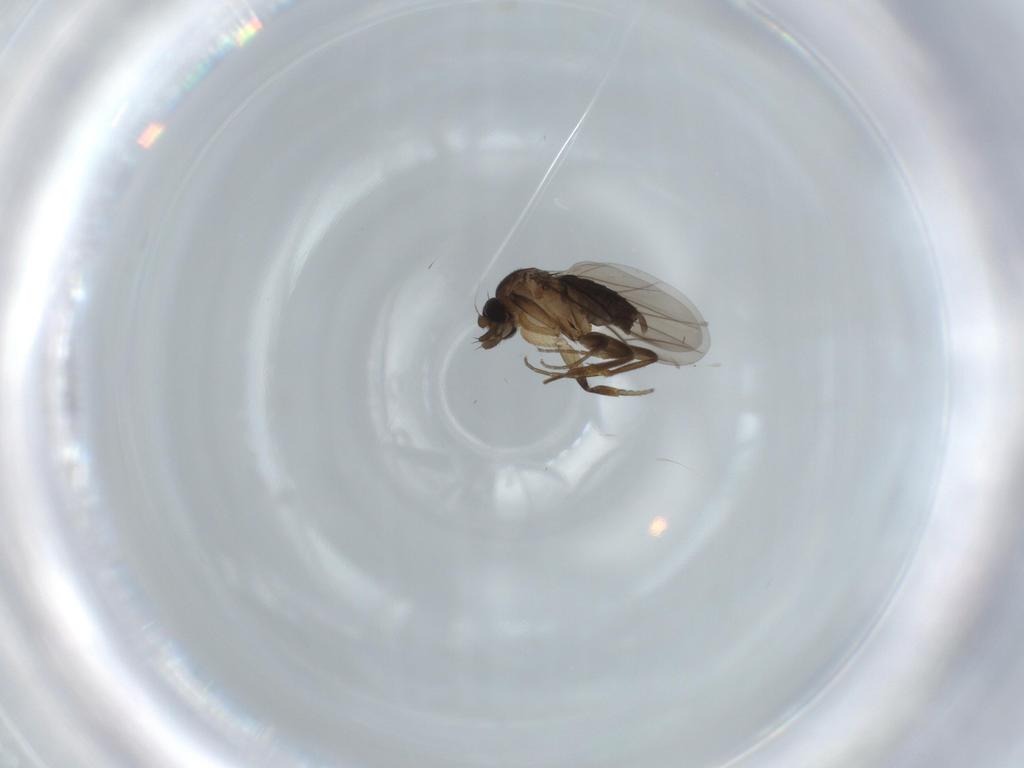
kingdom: Animalia
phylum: Arthropoda
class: Insecta
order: Diptera
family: Phoridae
